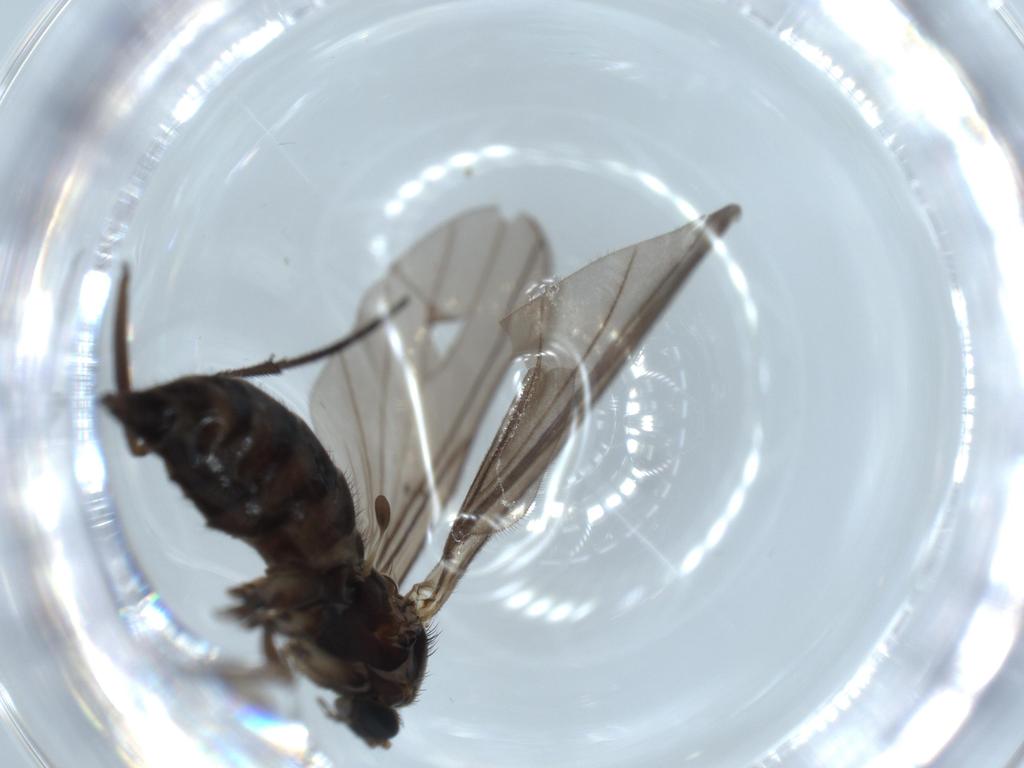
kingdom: Animalia
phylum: Arthropoda
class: Insecta
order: Diptera
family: Sciaridae
